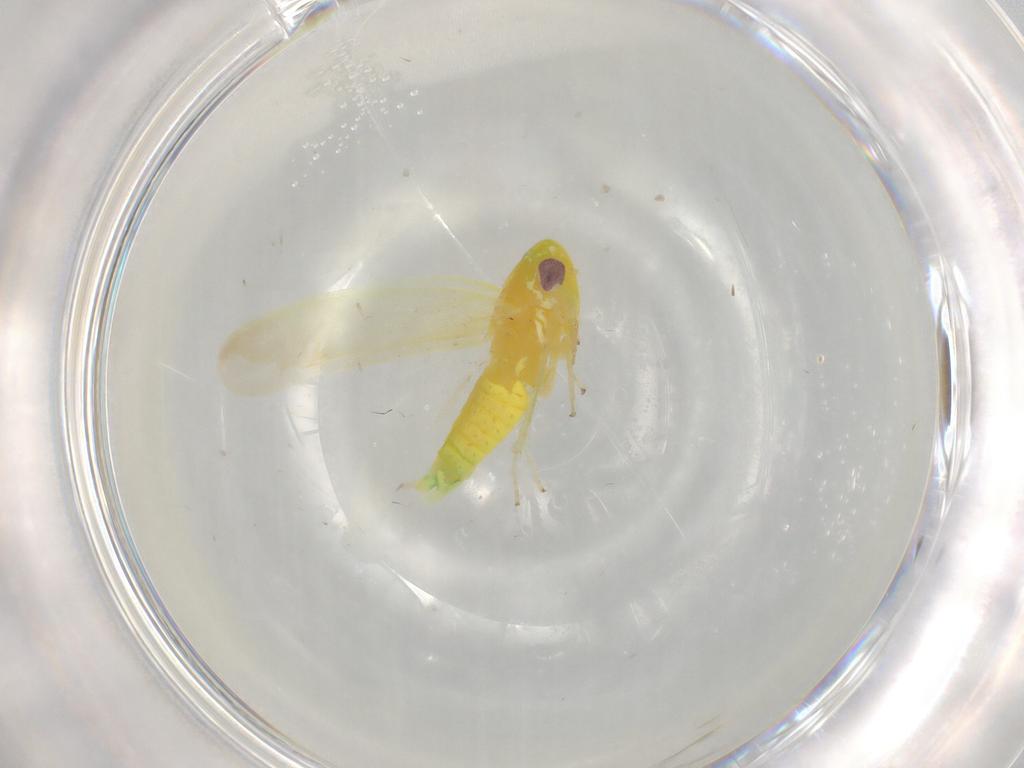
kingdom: Animalia
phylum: Arthropoda
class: Insecta
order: Hemiptera
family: Cicadellidae
